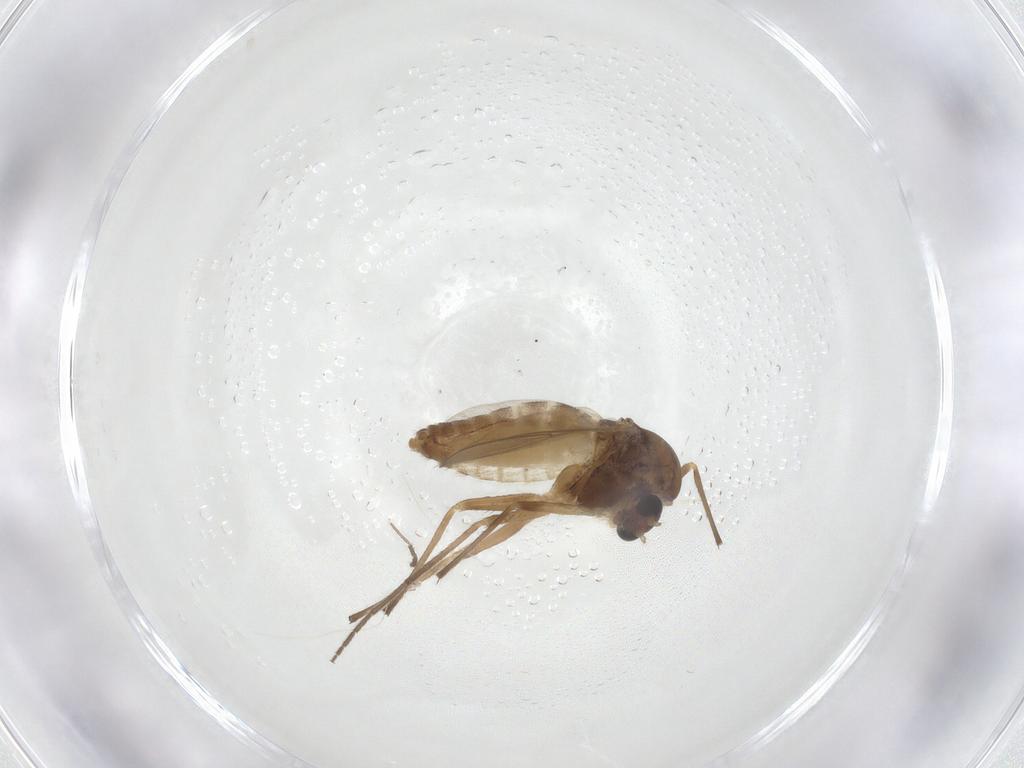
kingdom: Animalia
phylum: Arthropoda
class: Insecta
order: Diptera
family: Chironomidae
